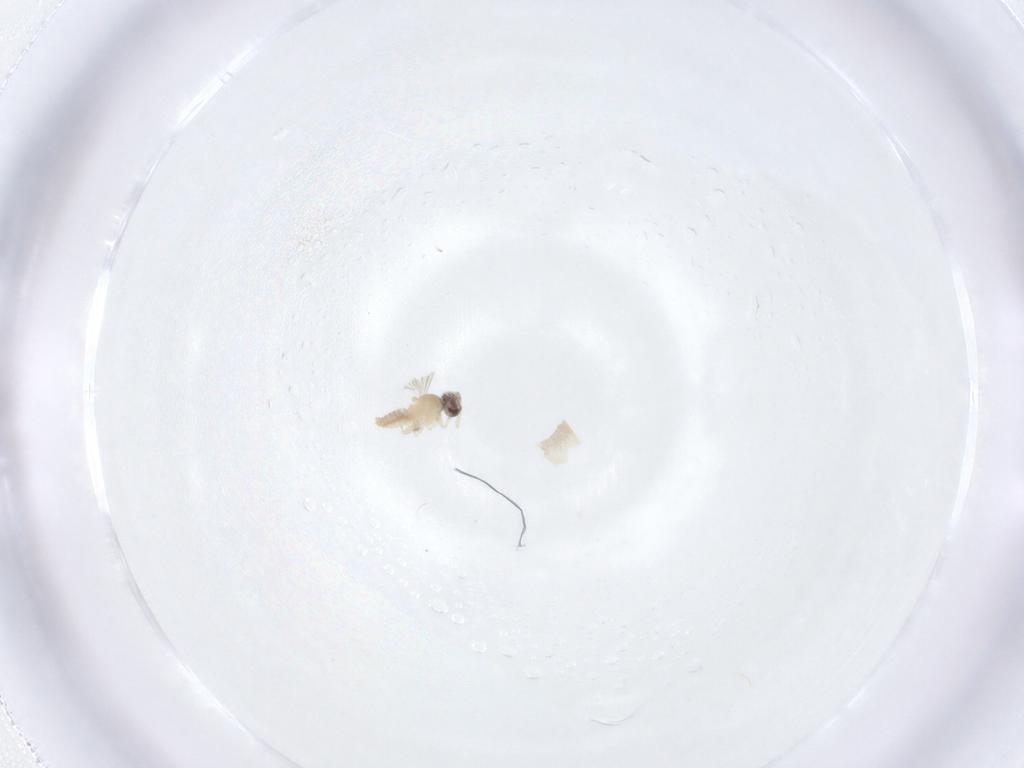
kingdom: Animalia
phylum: Arthropoda
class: Insecta
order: Diptera
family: Cecidomyiidae
